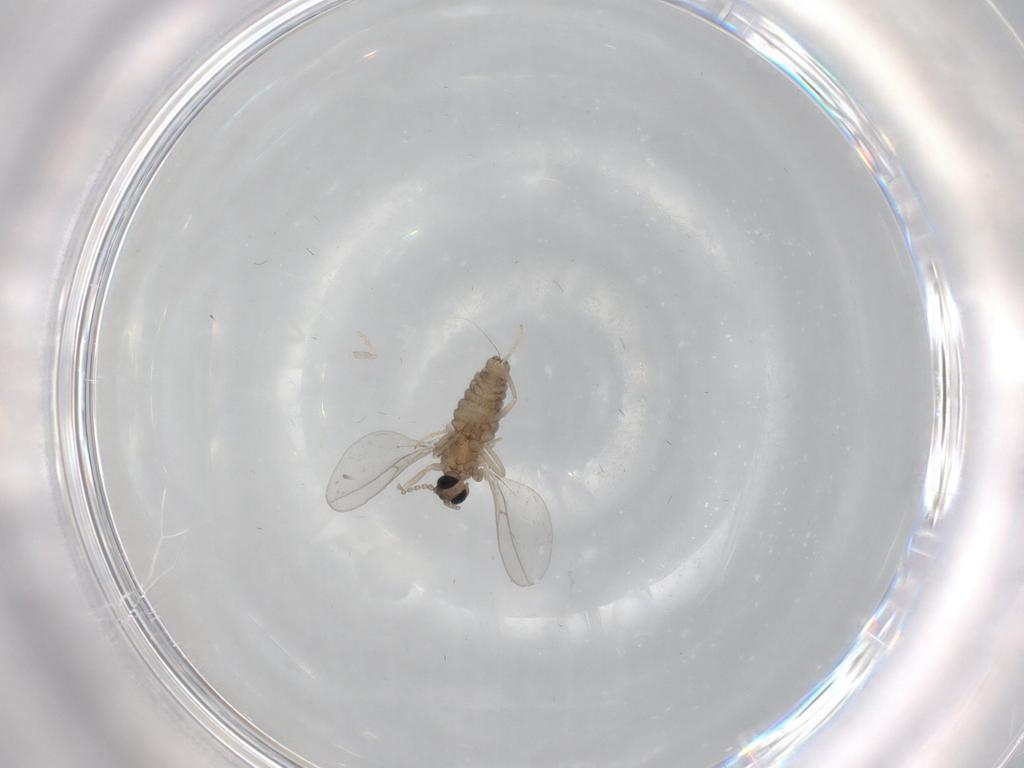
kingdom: Animalia
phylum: Arthropoda
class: Insecta
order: Diptera
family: Cecidomyiidae
